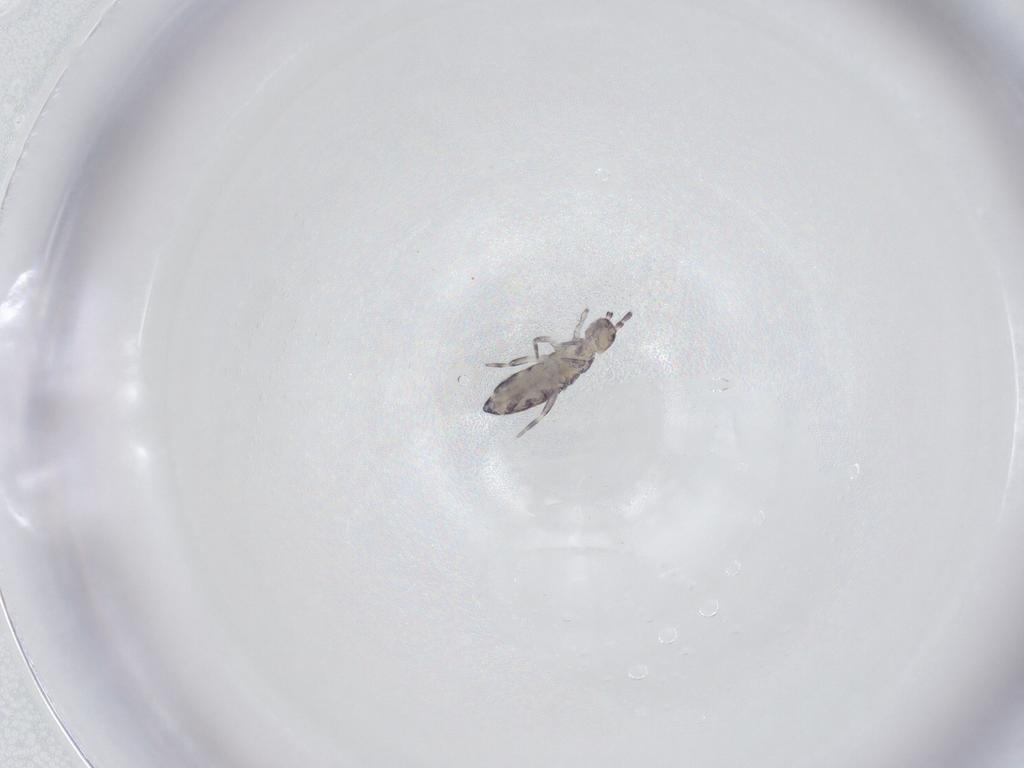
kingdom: Animalia
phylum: Arthropoda
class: Collembola
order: Entomobryomorpha
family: Entomobryidae
